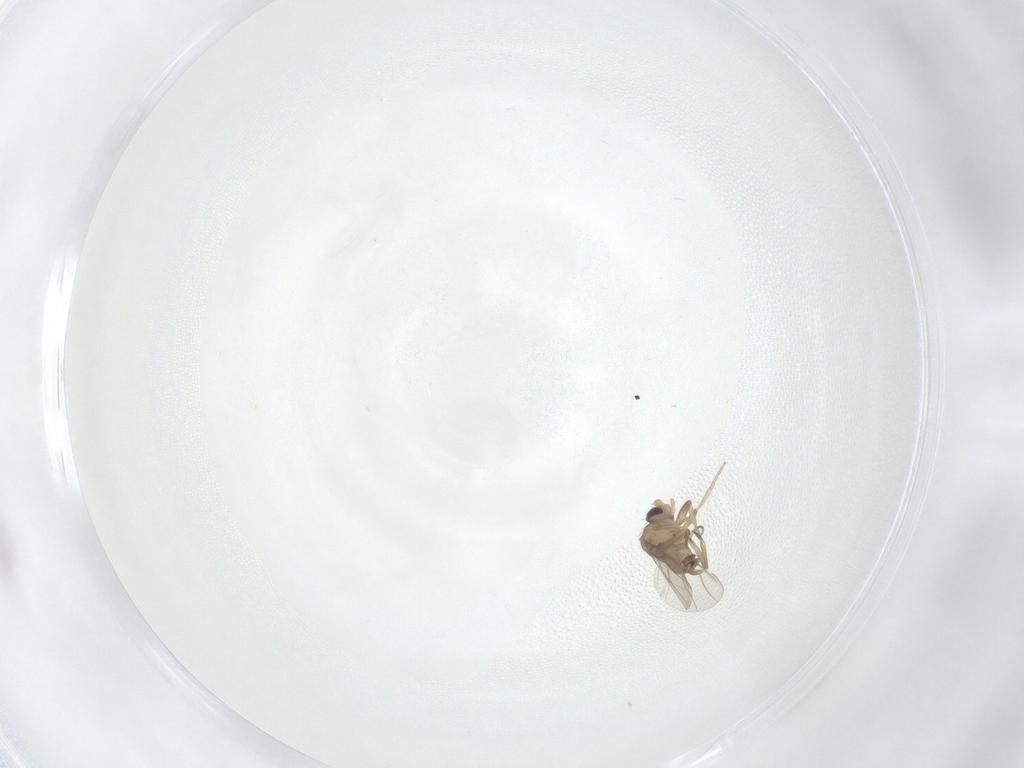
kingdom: Animalia
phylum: Arthropoda
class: Insecta
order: Diptera
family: Phoridae
